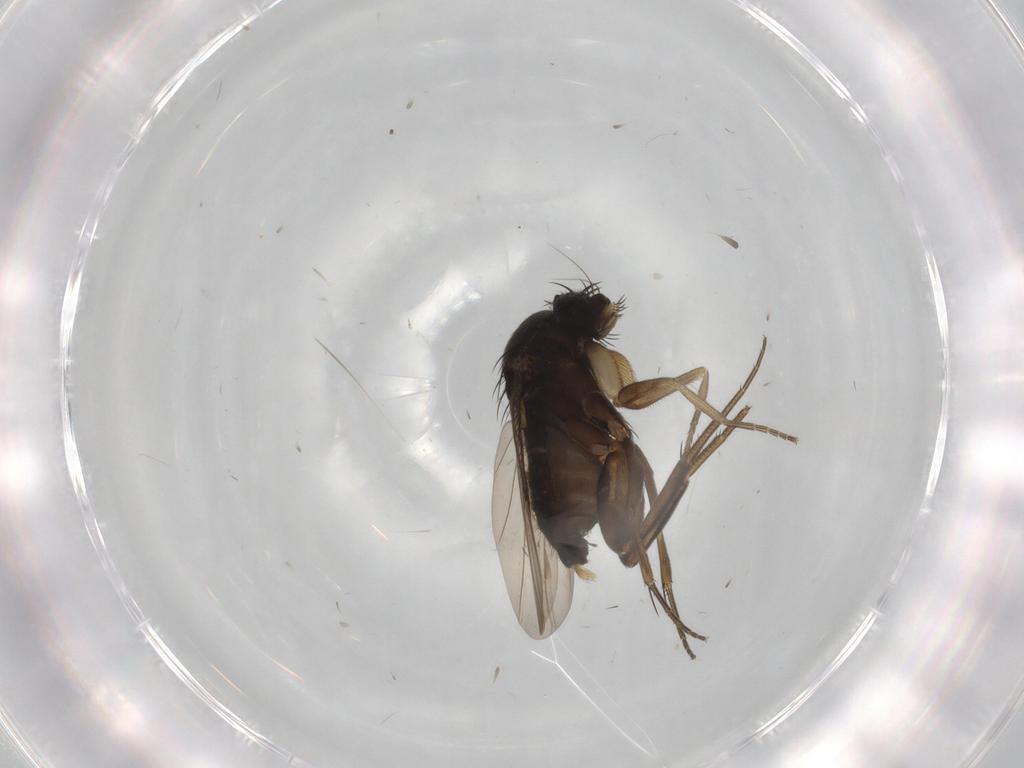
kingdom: Animalia
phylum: Arthropoda
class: Insecta
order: Diptera
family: Phoridae
